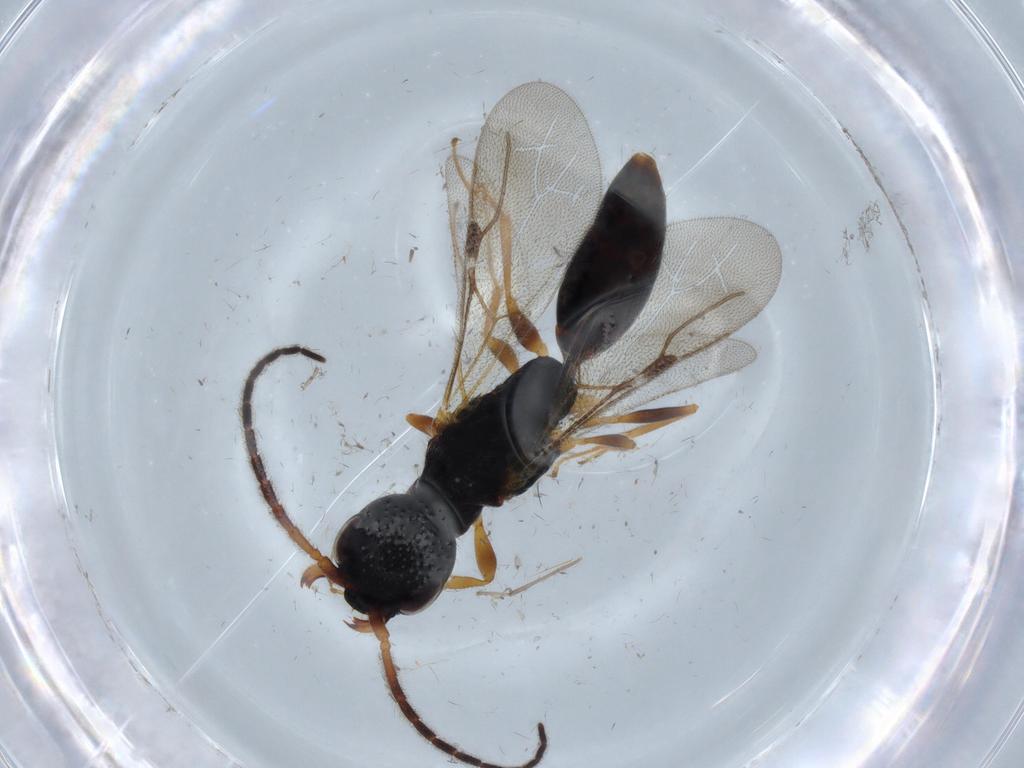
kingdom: Animalia
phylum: Arthropoda
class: Insecta
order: Hymenoptera
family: Bethylidae
